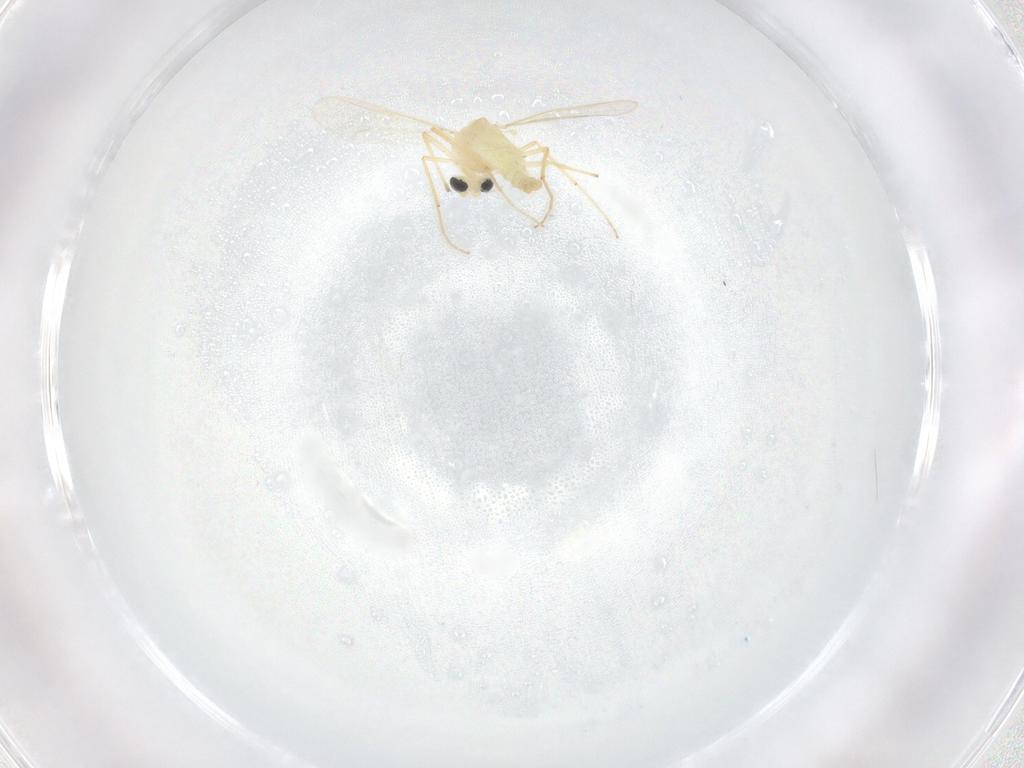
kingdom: Animalia
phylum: Arthropoda
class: Insecta
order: Diptera
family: Chironomidae
